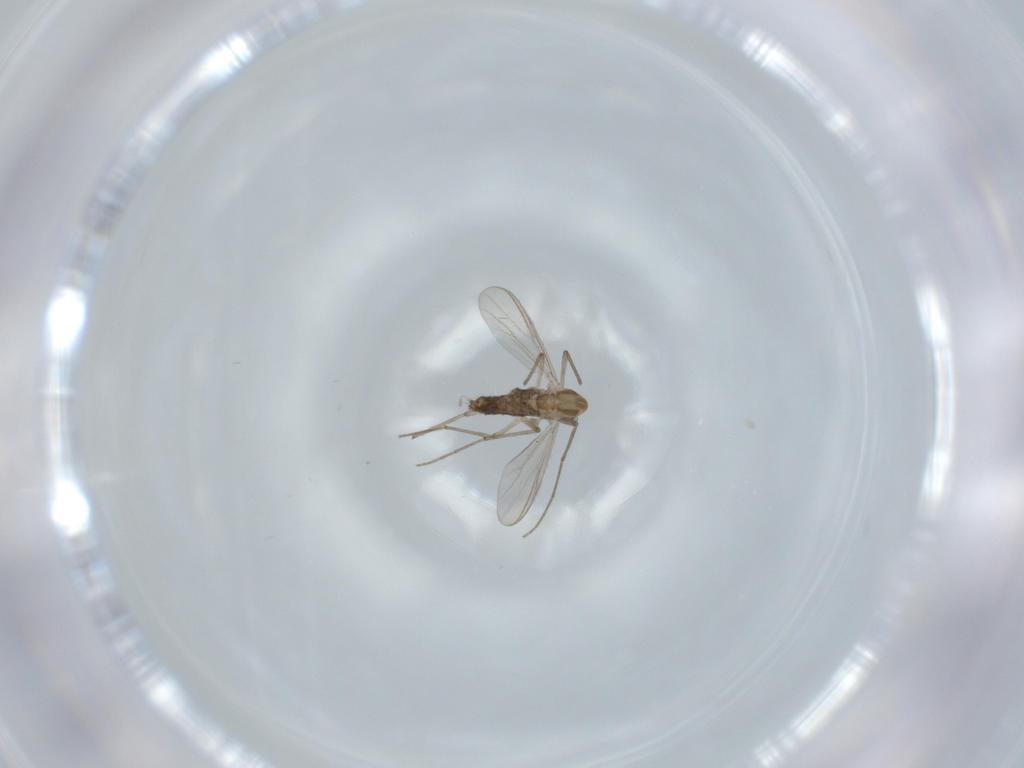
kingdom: Animalia
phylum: Arthropoda
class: Insecta
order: Diptera
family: Chironomidae
